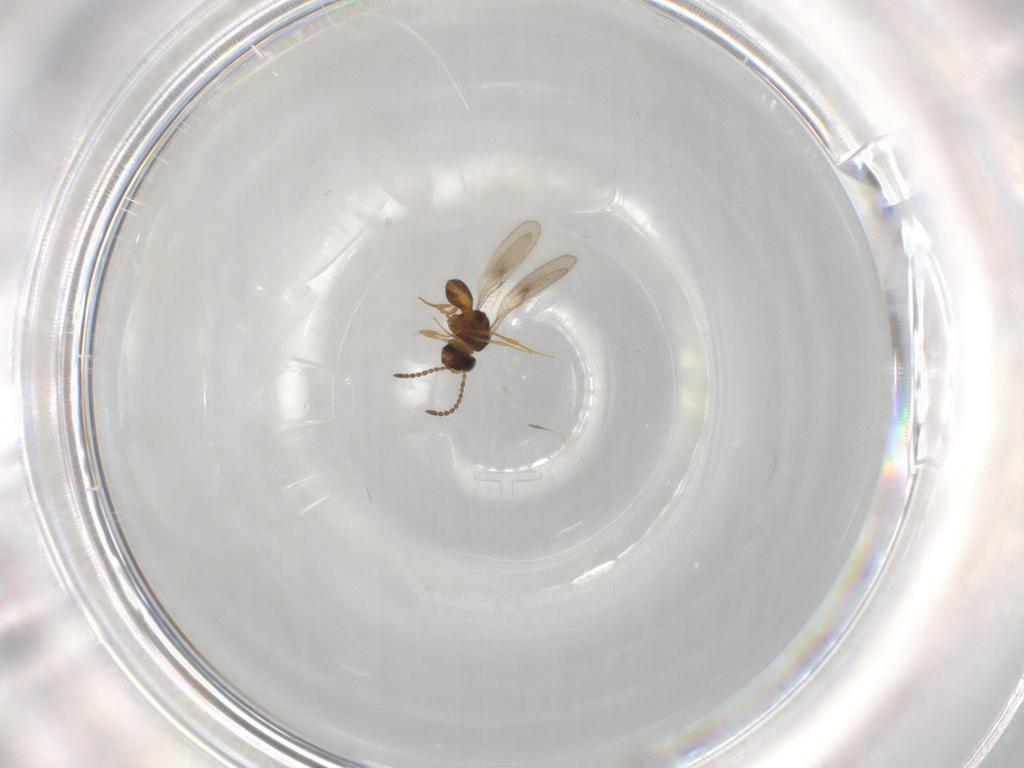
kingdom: Animalia
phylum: Arthropoda
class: Insecta
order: Hymenoptera
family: Scelionidae
